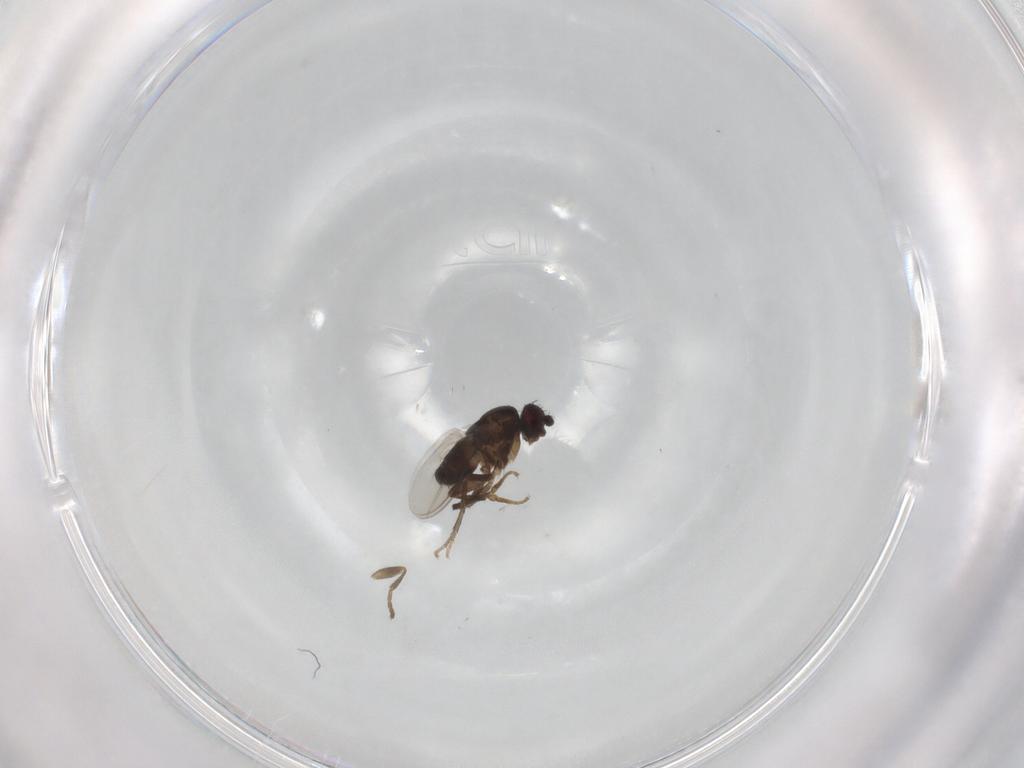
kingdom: Animalia
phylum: Arthropoda
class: Insecta
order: Diptera
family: Sphaeroceridae
